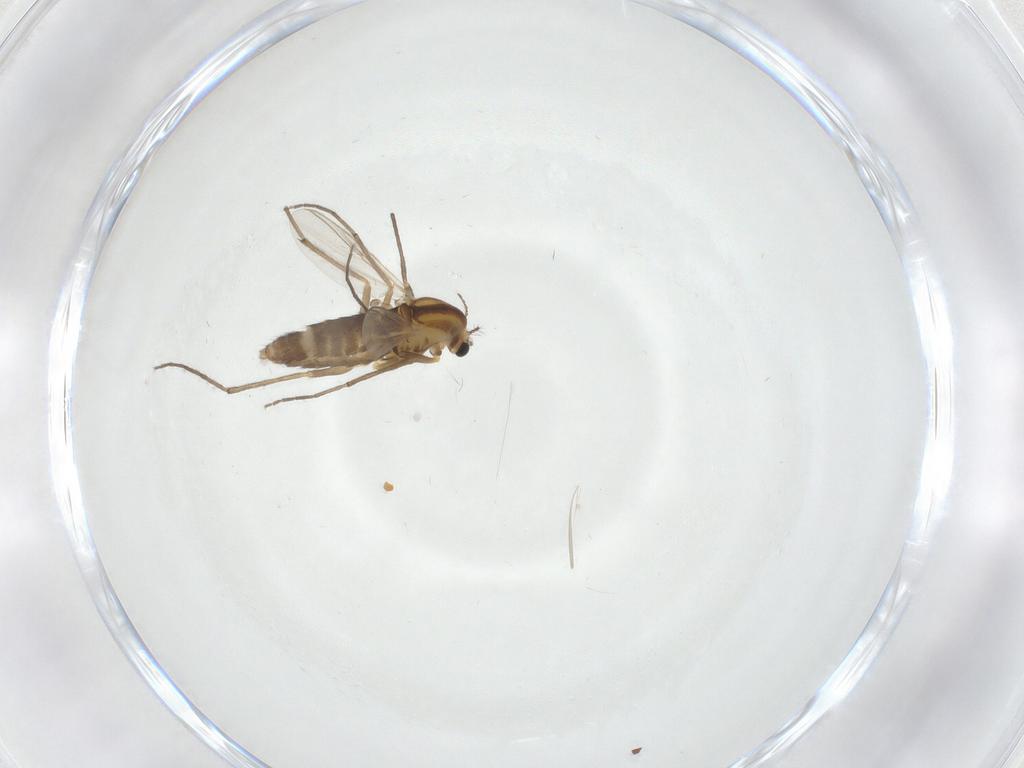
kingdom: Animalia
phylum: Arthropoda
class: Insecta
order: Diptera
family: Chironomidae
